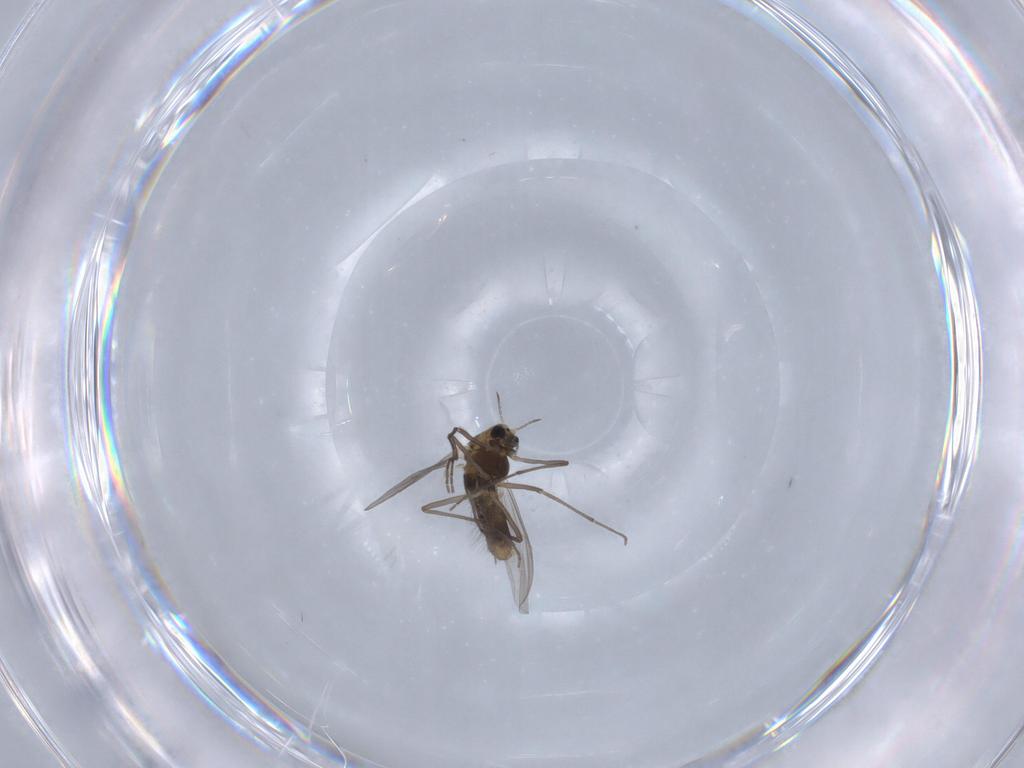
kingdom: Animalia
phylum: Arthropoda
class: Insecta
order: Diptera
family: Chironomidae
